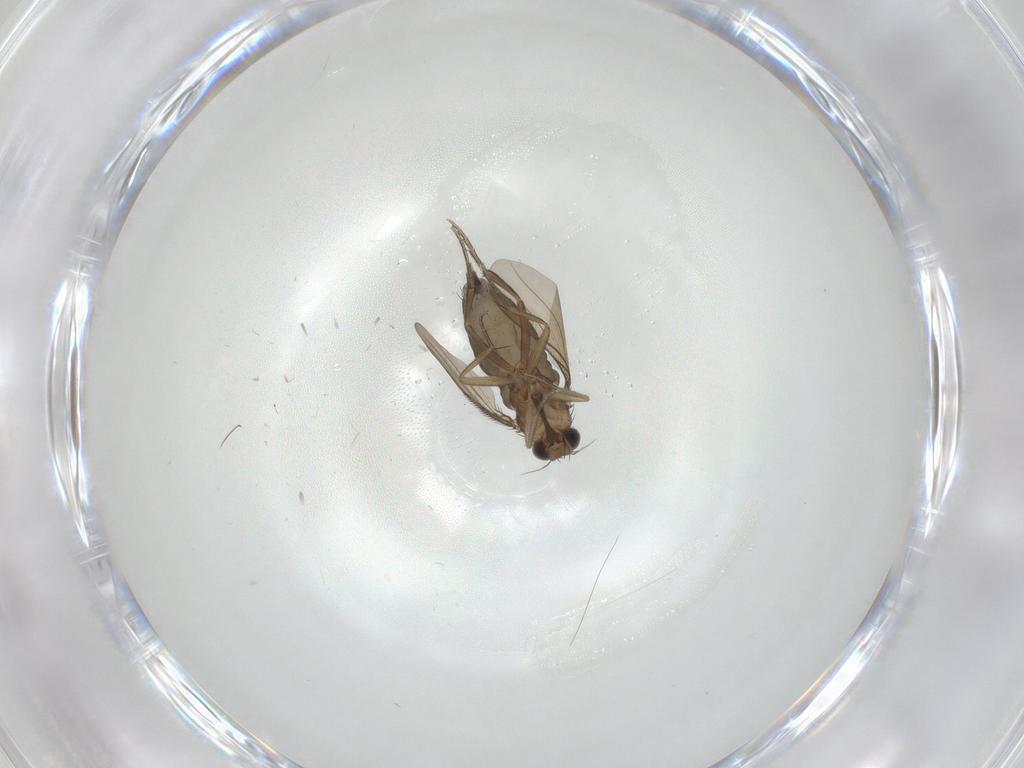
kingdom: Animalia
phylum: Arthropoda
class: Insecta
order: Diptera
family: Phoridae
